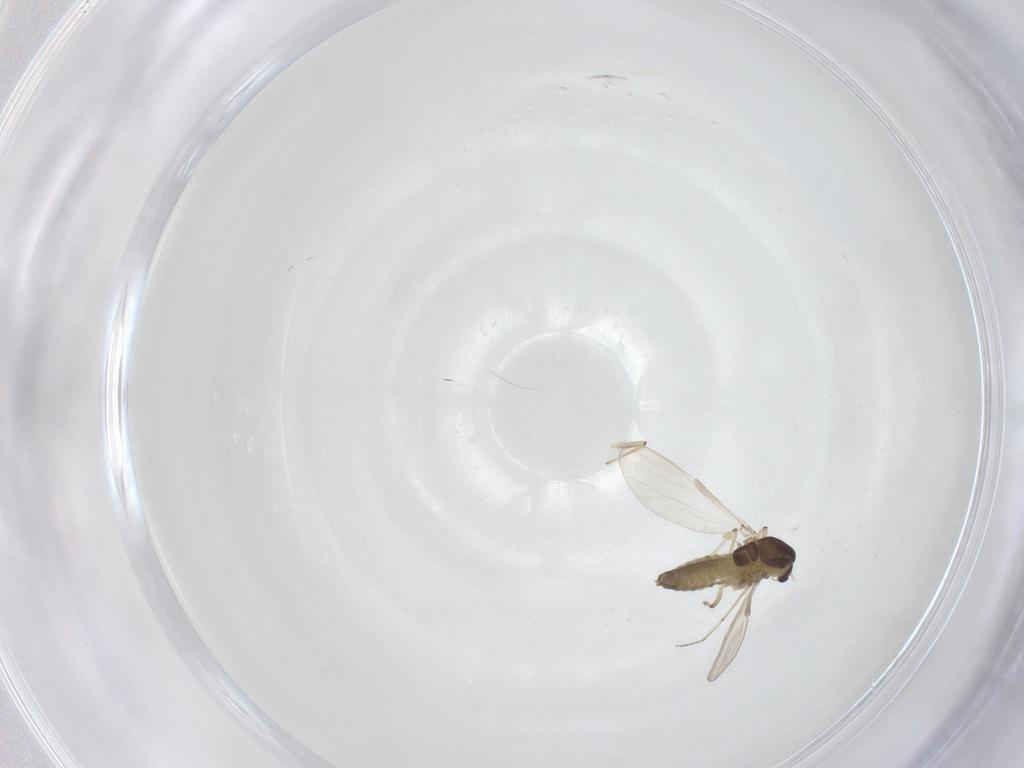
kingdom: Animalia
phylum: Arthropoda
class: Insecta
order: Diptera
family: Chironomidae
